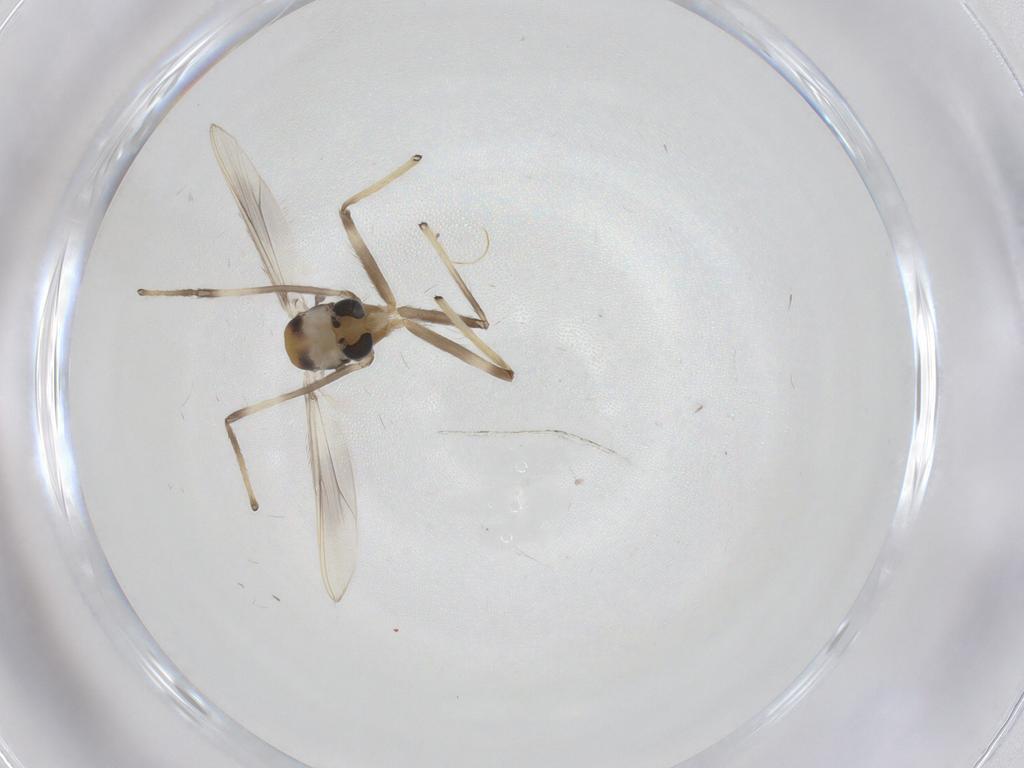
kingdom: Animalia
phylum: Arthropoda
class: Insecta
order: Diptera
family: Chironomidae
